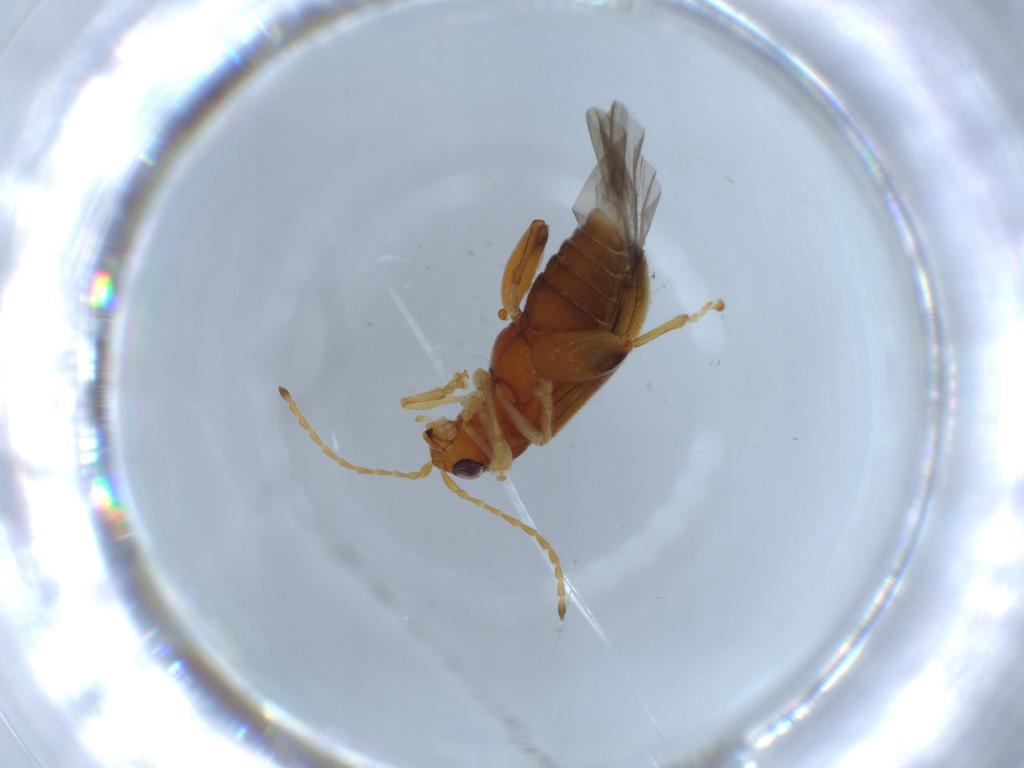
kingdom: Animalia
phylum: Arthropoda
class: Insecta
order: Coleoptera
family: Chrysomelidae
